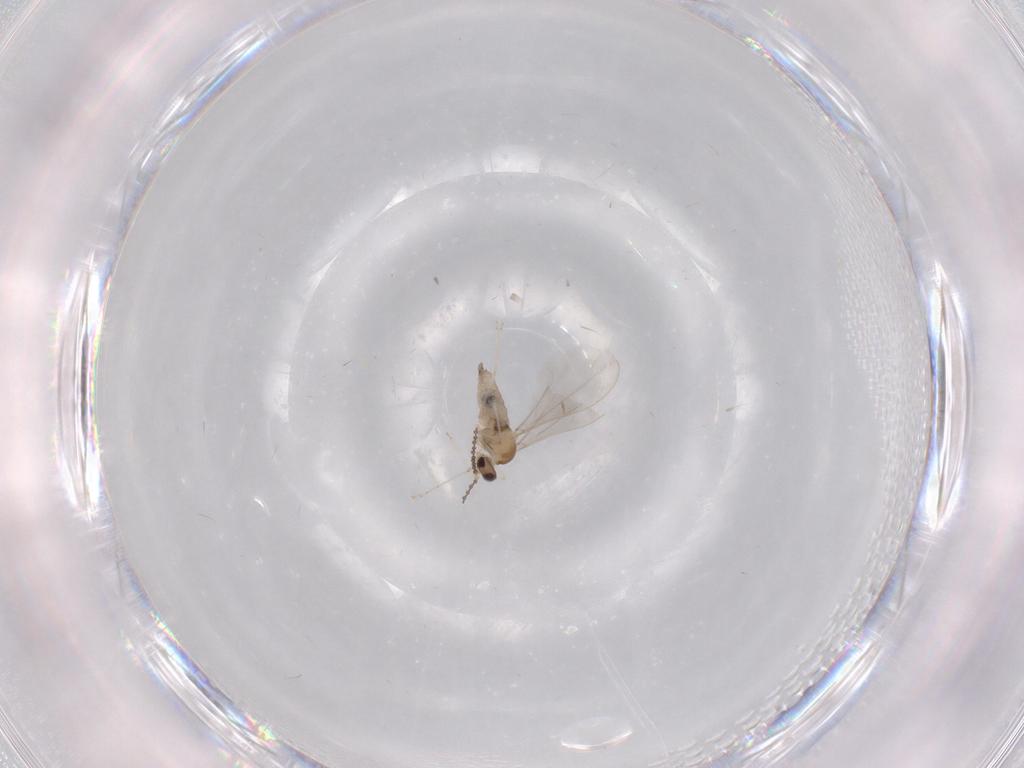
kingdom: Animalia
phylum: Arthropoda
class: Insecta
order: Diptera
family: Cecidomyiidae
